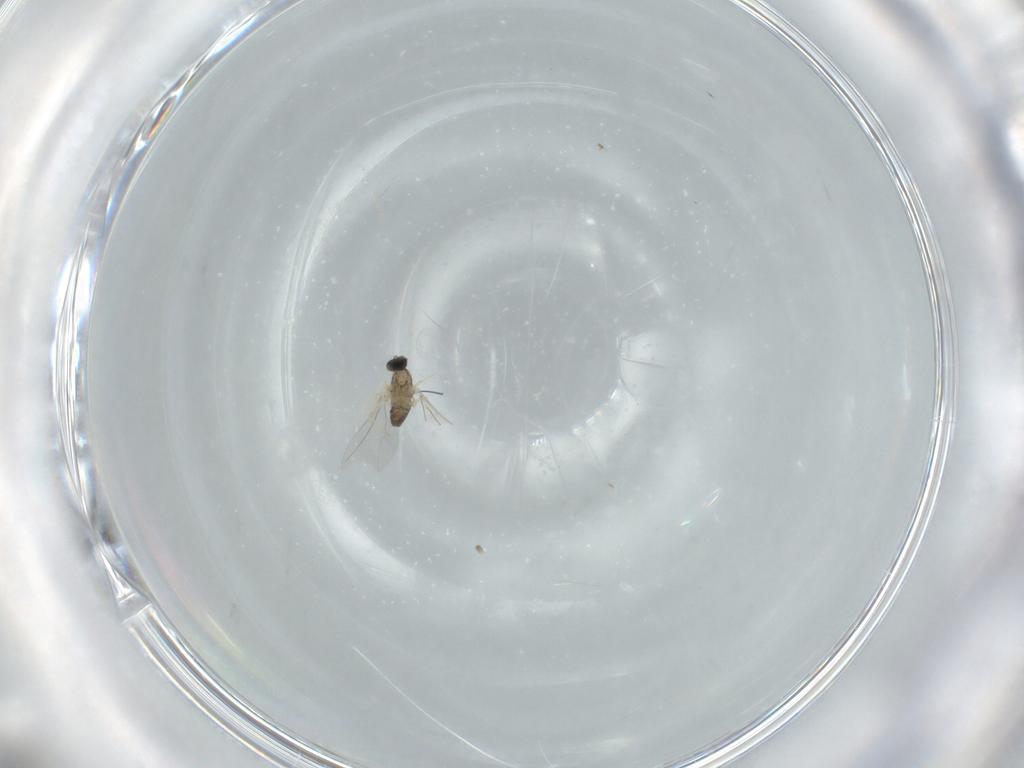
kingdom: Animalia
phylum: Arthropoda
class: Insecta
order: Diptera
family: Cecidomyiidae
